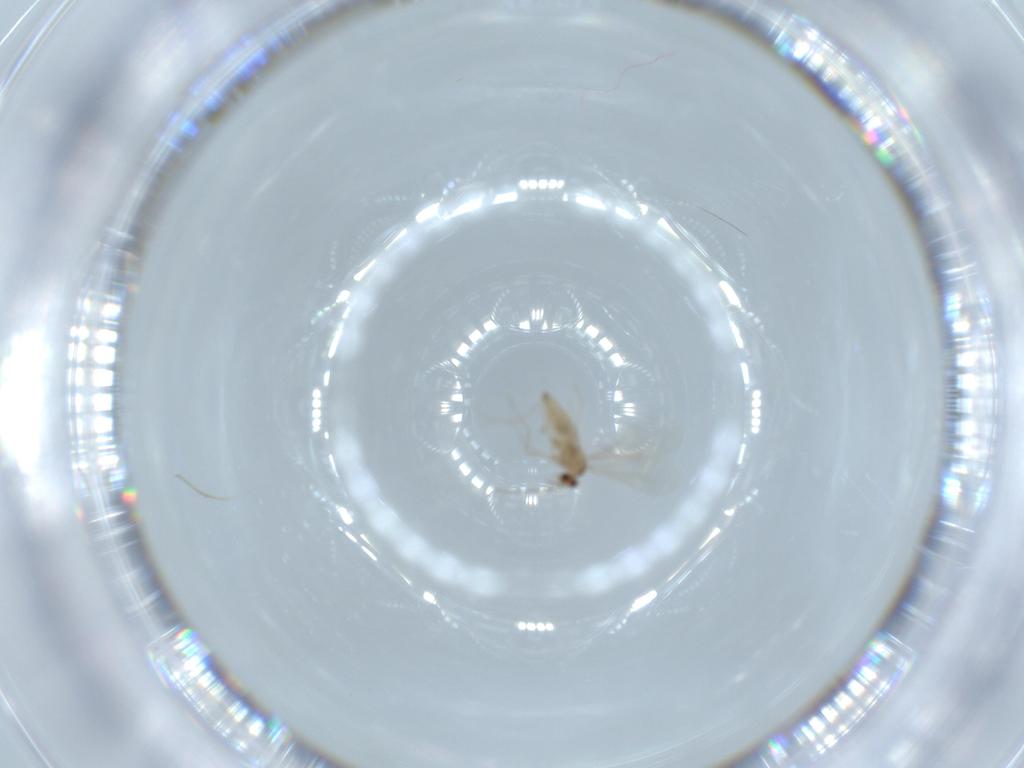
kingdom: Animalia
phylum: Arthropoda
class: Insecta
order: Diptera
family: Cecidomyiidae
